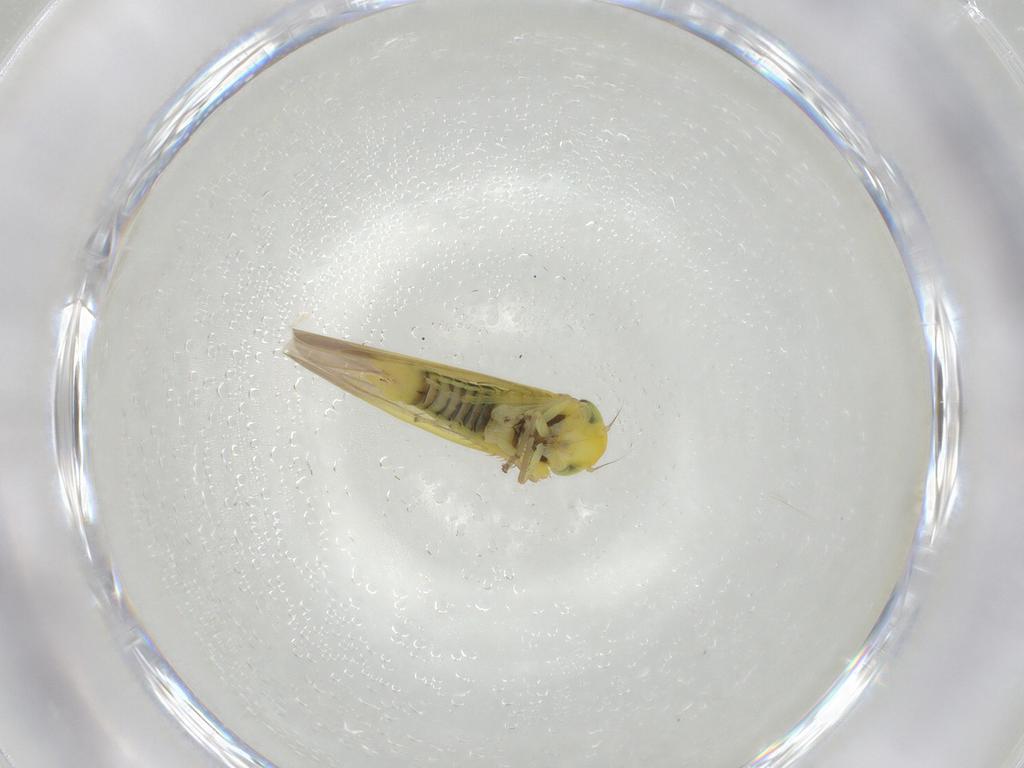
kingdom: Animalia
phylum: Arthropoda
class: Insecta
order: Hemiptera
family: Cicadellidae
